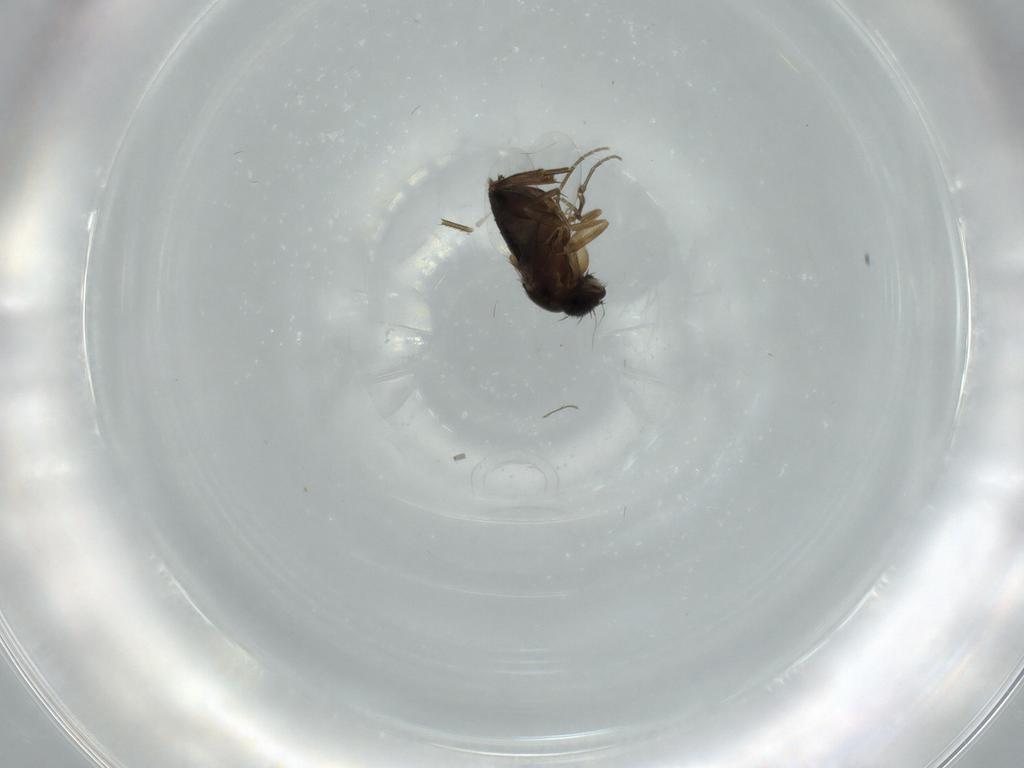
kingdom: Animalia
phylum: Arthropoda
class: Insecta
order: Diptera
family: Phoridae
